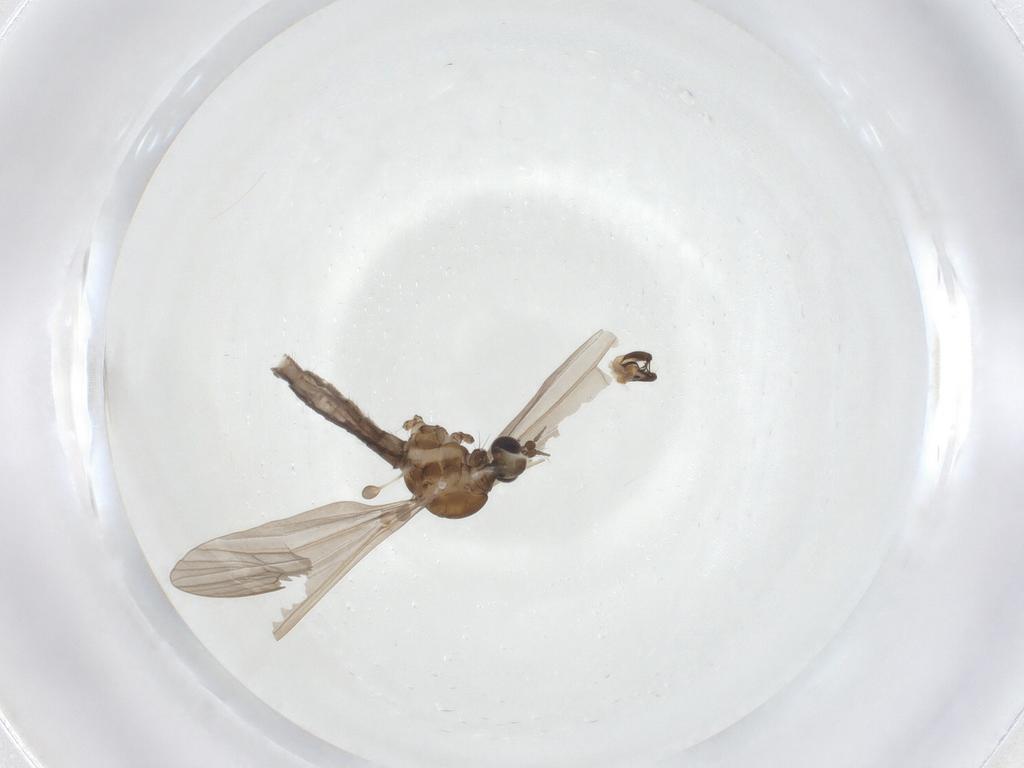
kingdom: Animalia
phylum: Arthropoda
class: Insecta
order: Diptera
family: Limoniidae
